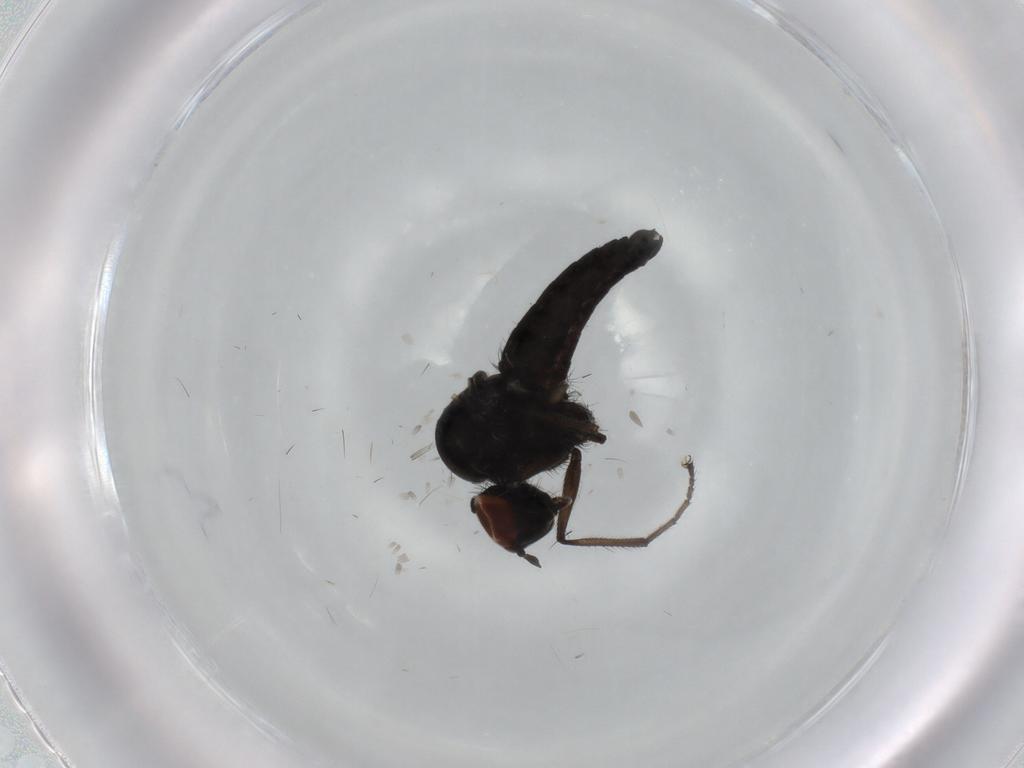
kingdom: Animalia
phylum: Arthropoda
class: Insecta
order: Diptera
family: Hybotidae
